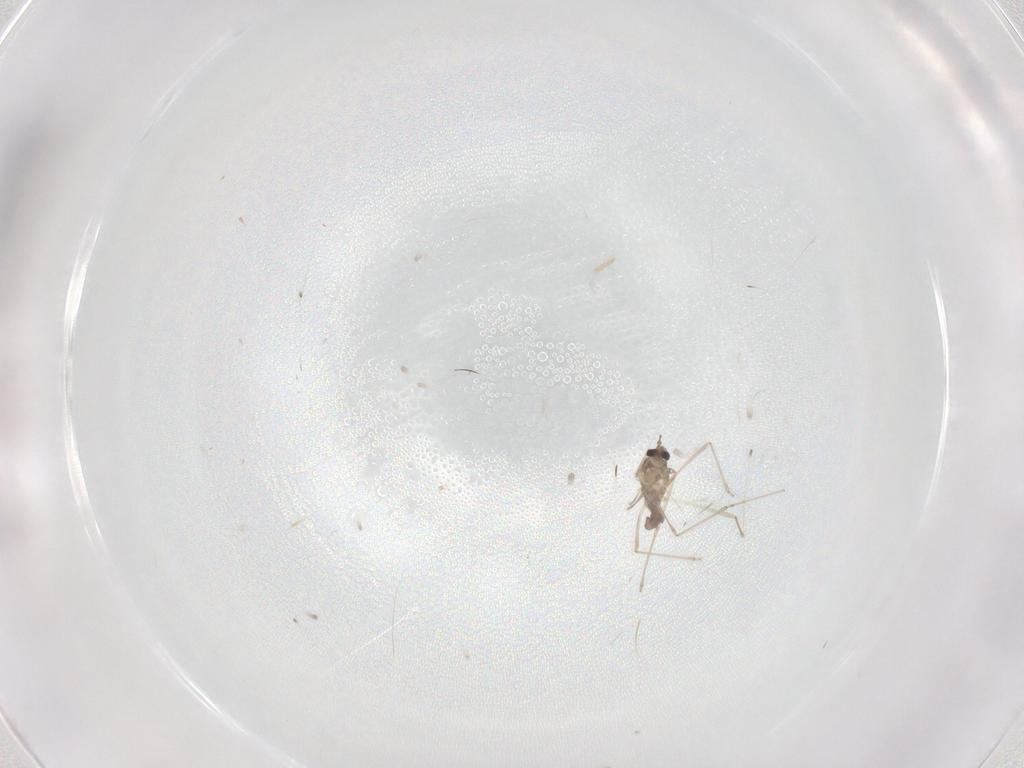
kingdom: Animalia
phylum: Arthropoda
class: Insecta
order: Diptera
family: Cecidomyiidae
